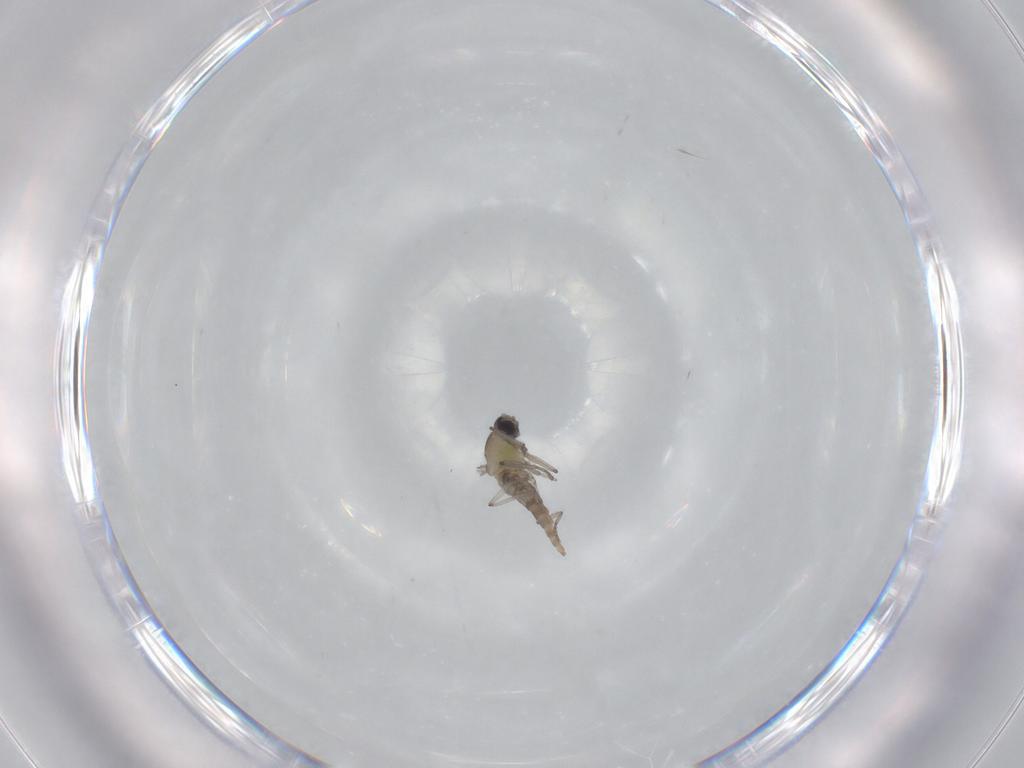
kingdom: Animalia
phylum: Arthropoda
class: Insecta
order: Diptera
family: Cecidomyiidae
